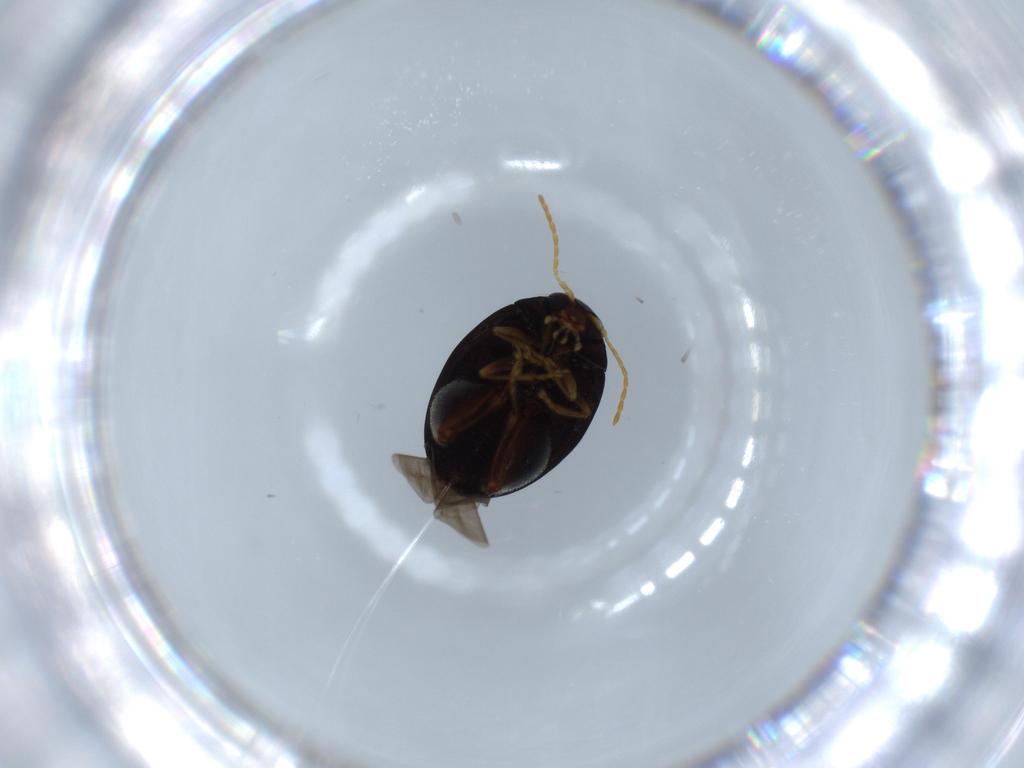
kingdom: Animalia
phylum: Arthropoda
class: Insecta
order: Coleoptera
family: Chrysomelidae
